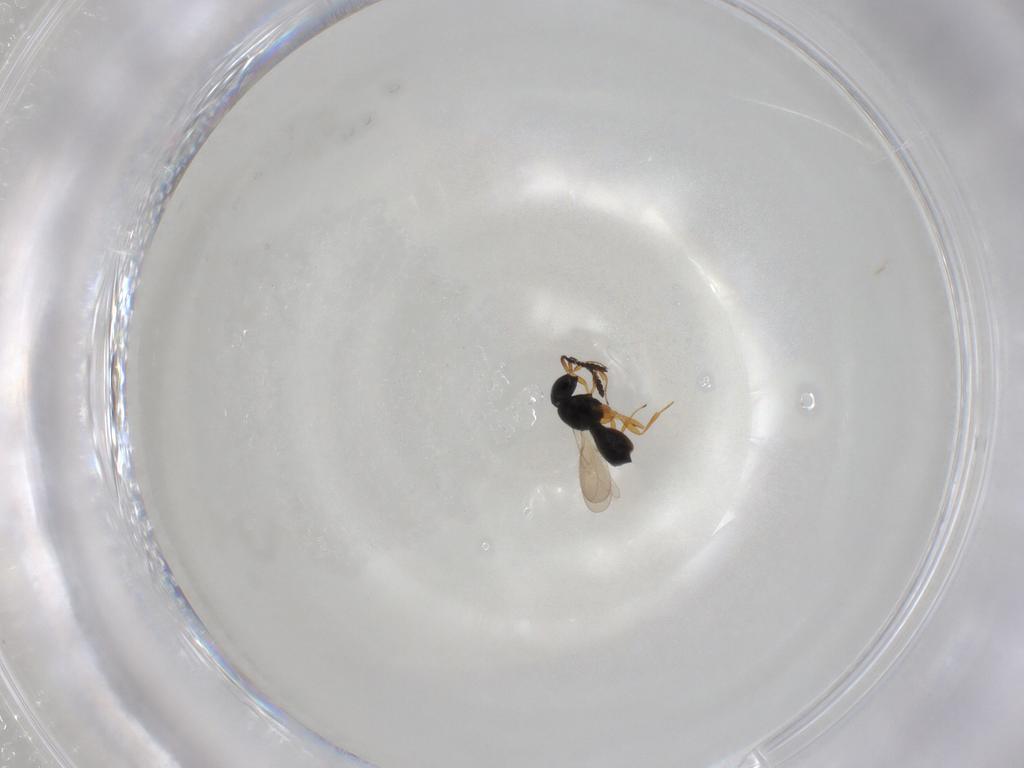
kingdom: Animalia
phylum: Arthropoda
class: Insecta
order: Hymenoptera
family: Scelionidae
